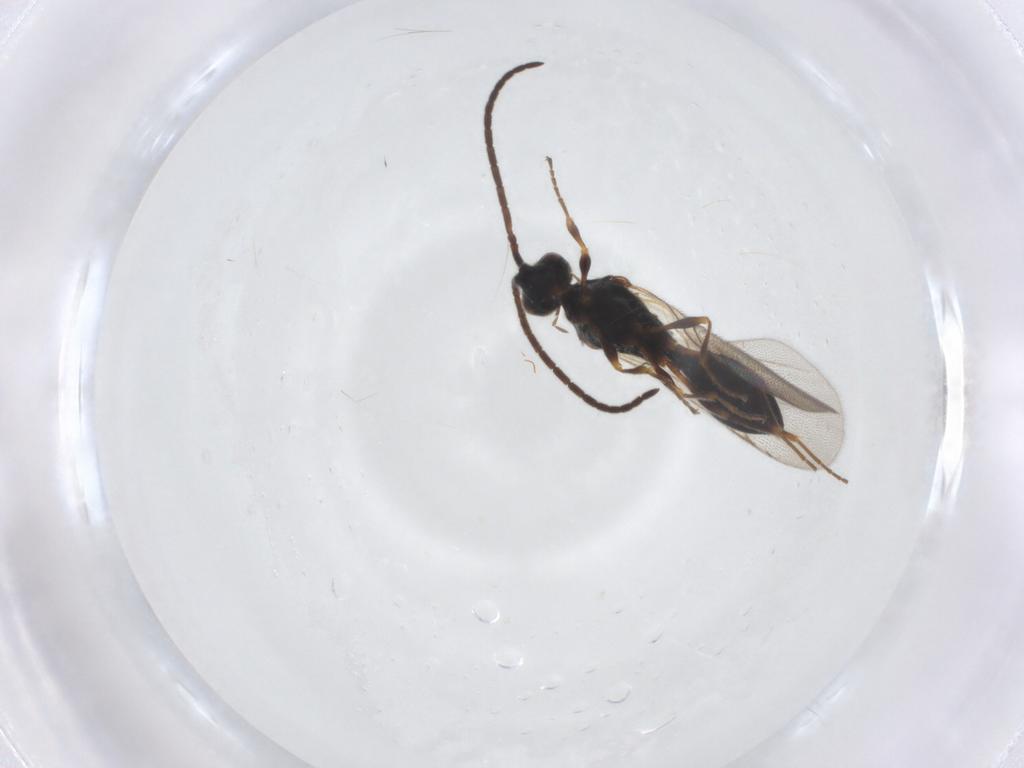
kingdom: Animalia
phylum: Arthropoda
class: Insecta
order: Hymenoptera
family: Diapriidae
